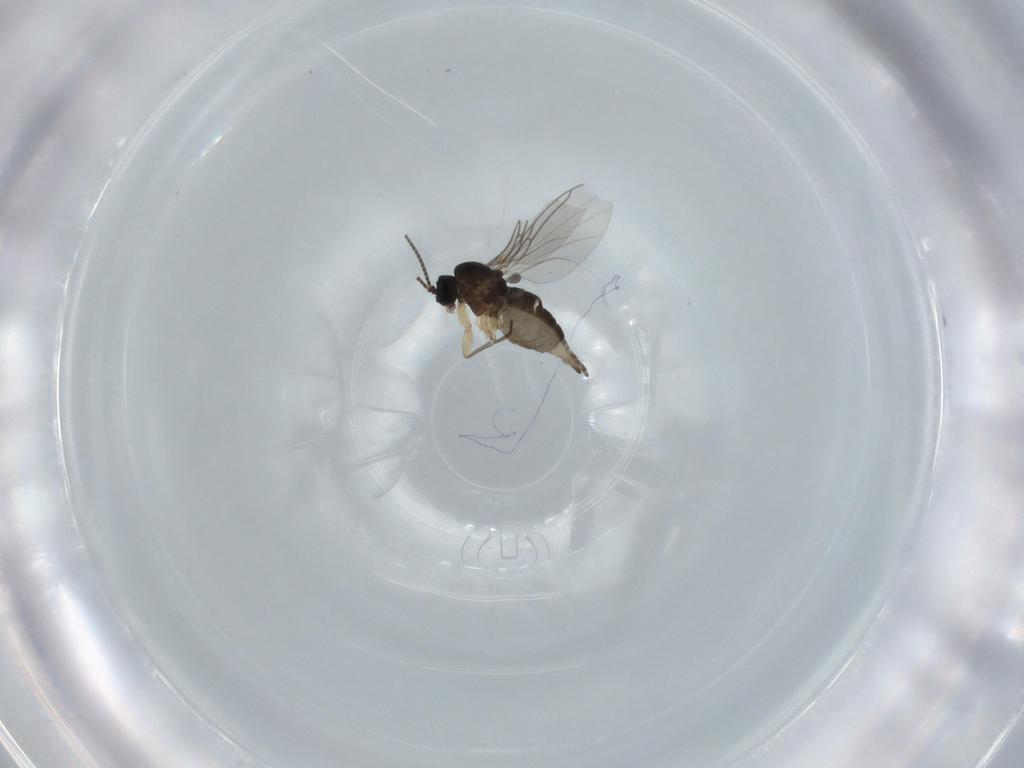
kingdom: Animalia
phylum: Arthropoda
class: Insecta
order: Diptera
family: Sciaridae
